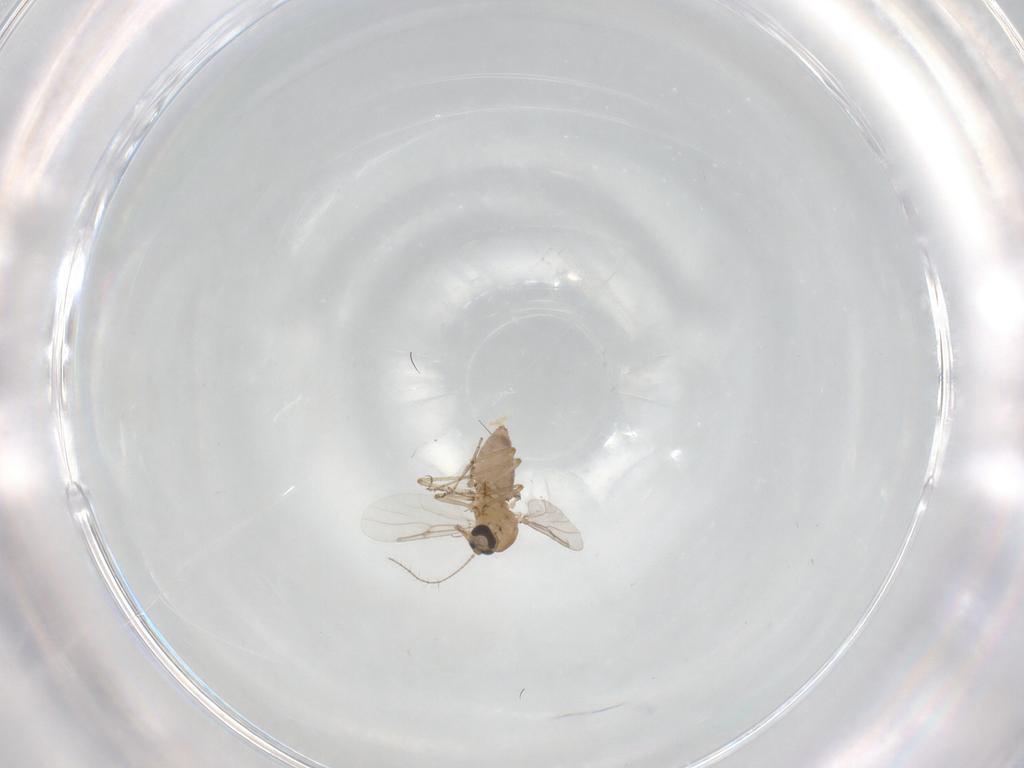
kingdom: Animalia
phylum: Arthropoda
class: Insecta
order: Diptera
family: Ceratopogonidae
